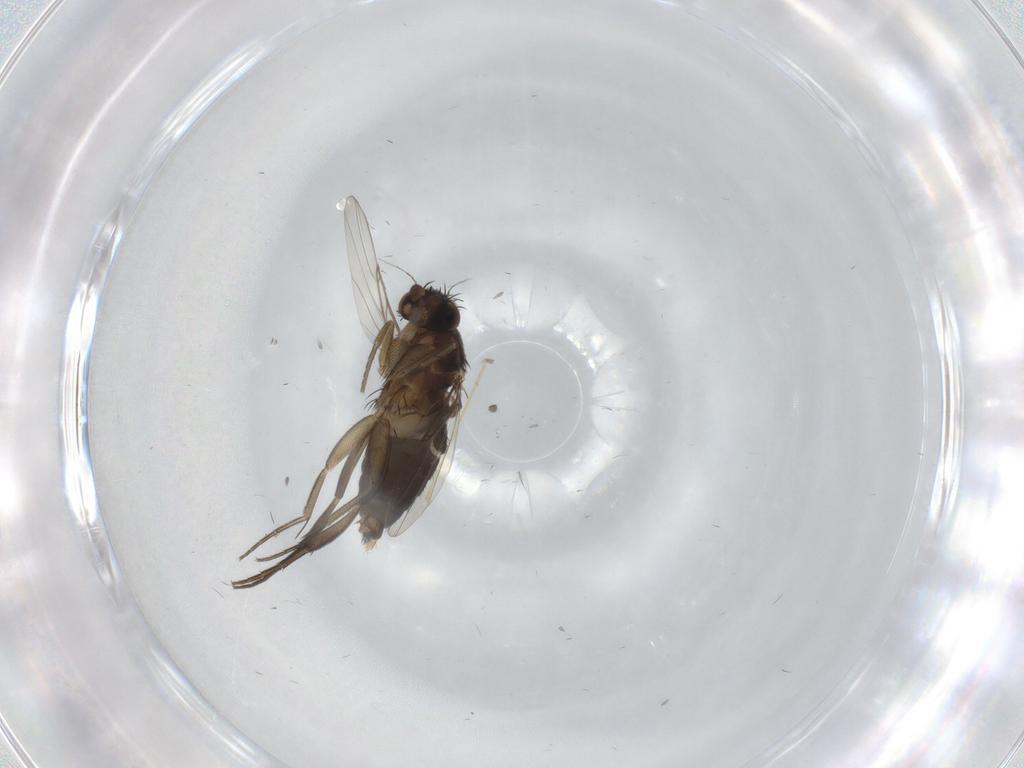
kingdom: Animalia
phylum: Arthropoda
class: Insecta
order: Diptera
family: Phoridae
